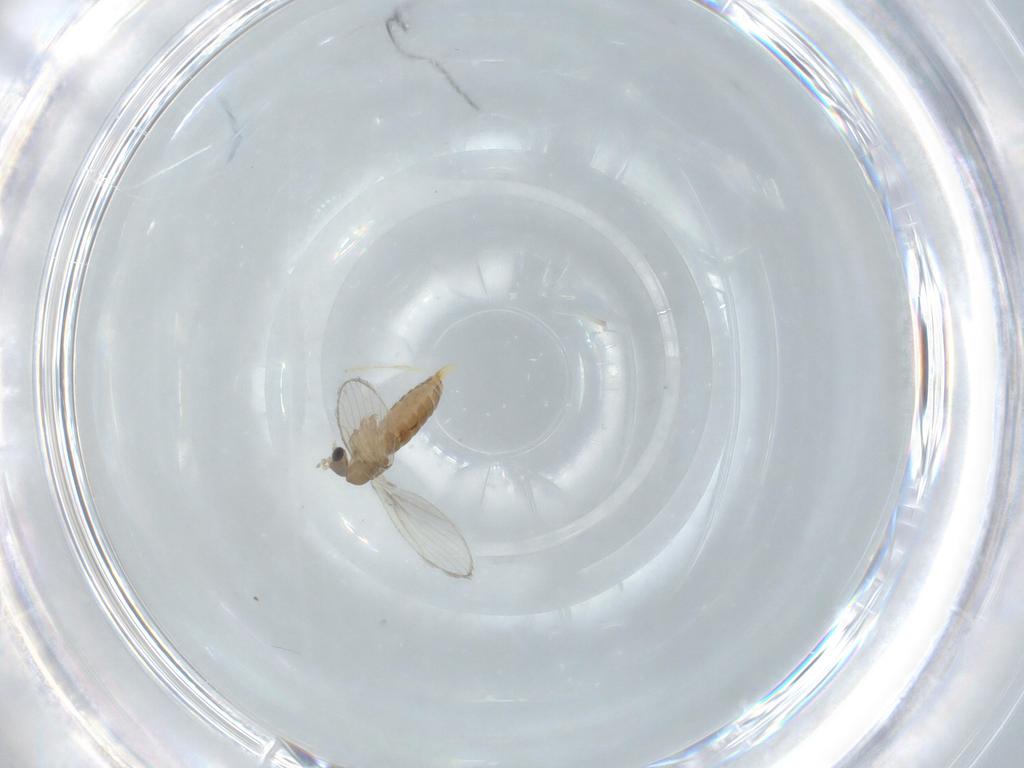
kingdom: Animalia
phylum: Arthropoda
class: Insecta
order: Diptera
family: Psychodidae
